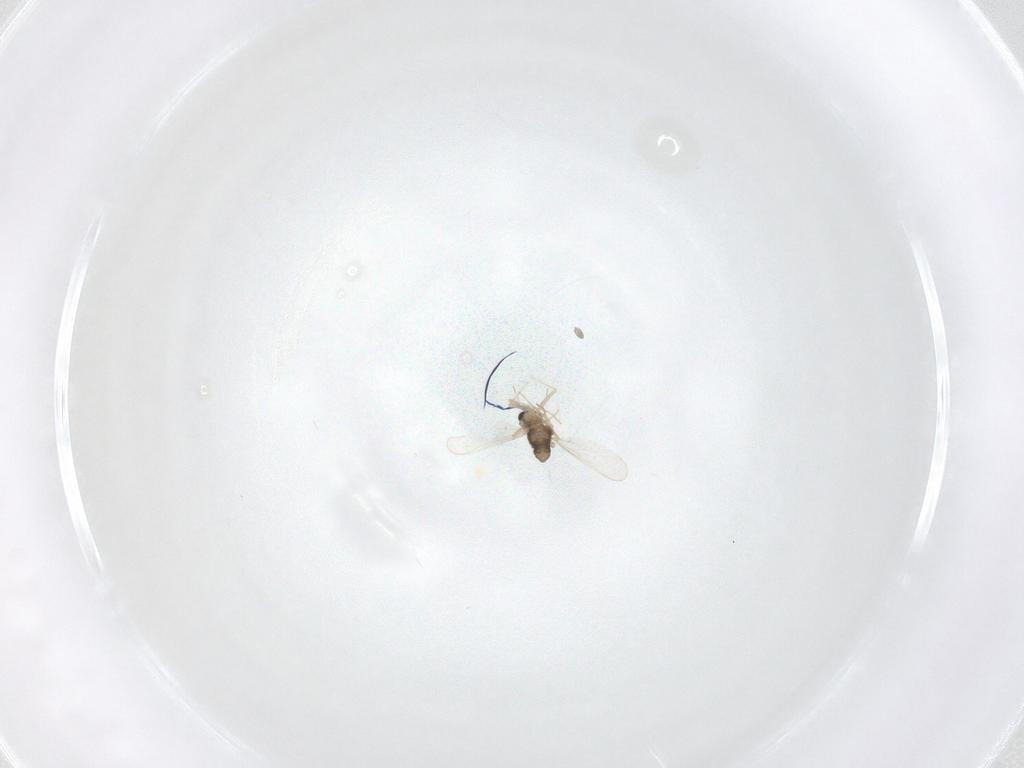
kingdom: Animalia
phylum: Arthropoda
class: Insecta
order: Diptera
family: Chironomidae
